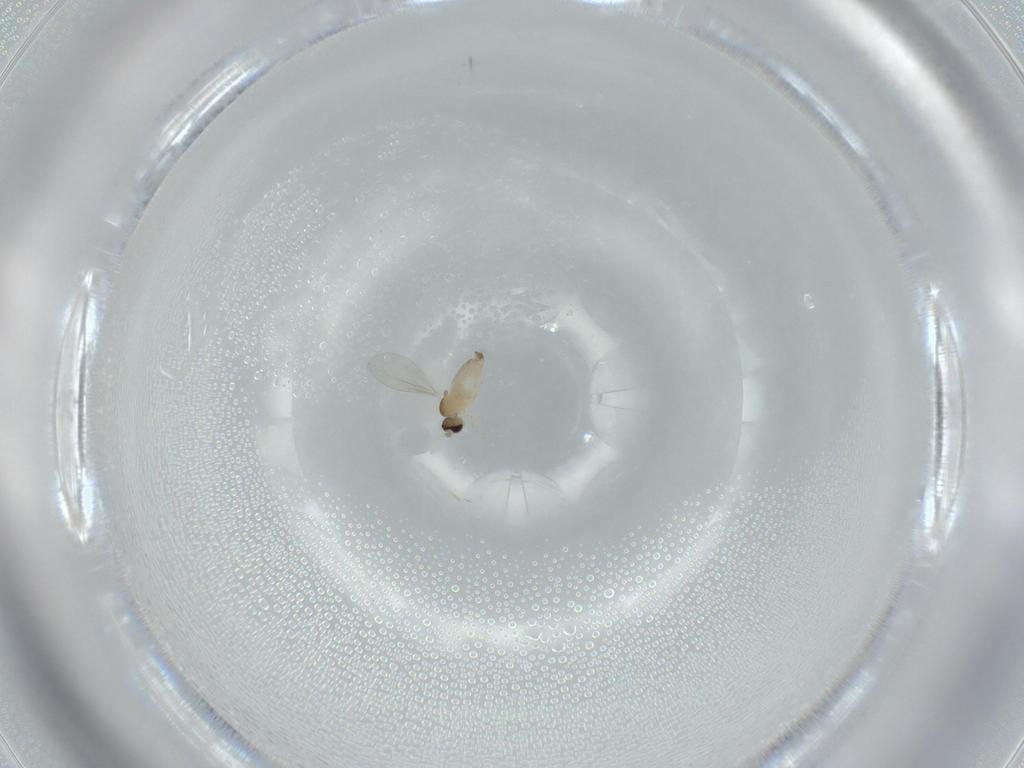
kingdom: Animalia
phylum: Arthropoda
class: Insecta
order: Diptera
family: Cecidomyiidae
